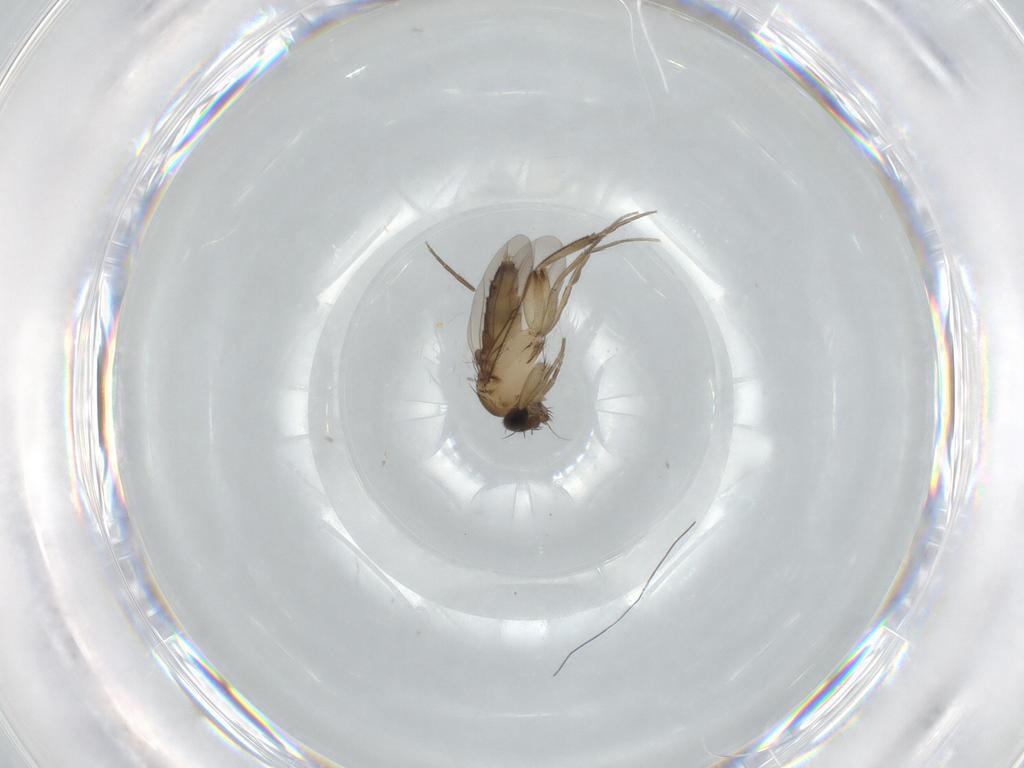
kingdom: Animalia
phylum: Arthropoda
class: Insecta
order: Diptera
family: Phoridae
